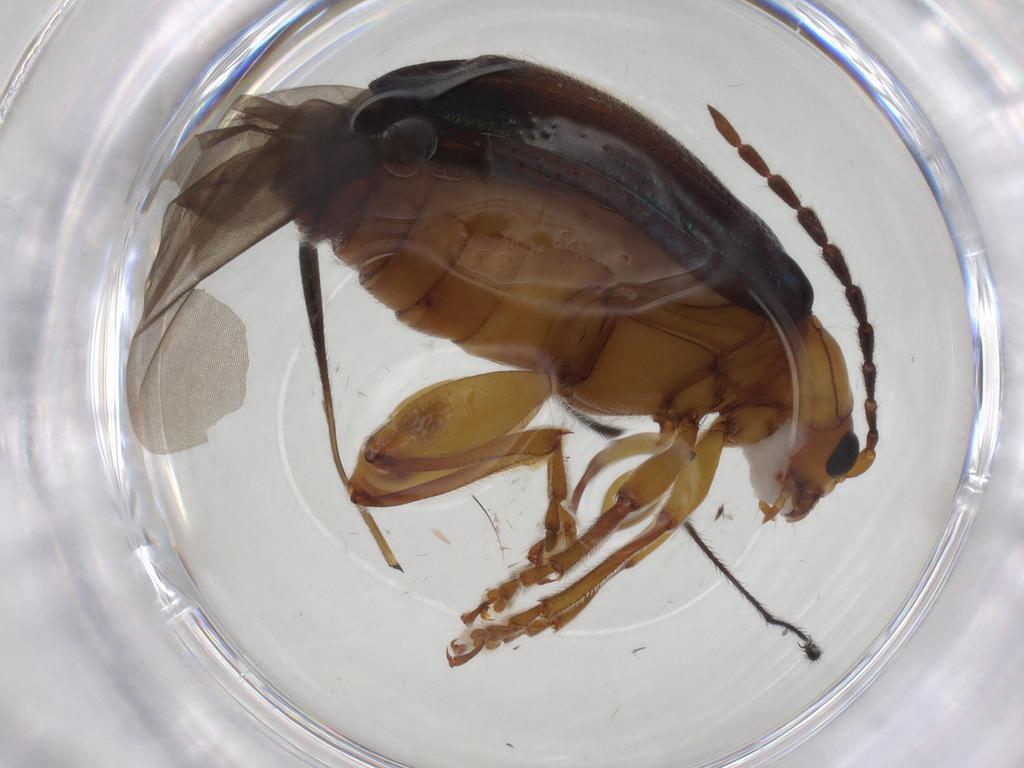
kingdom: Animalia
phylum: Arthropoda
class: Insecta
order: Coleoptera
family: Chrysomelidae
